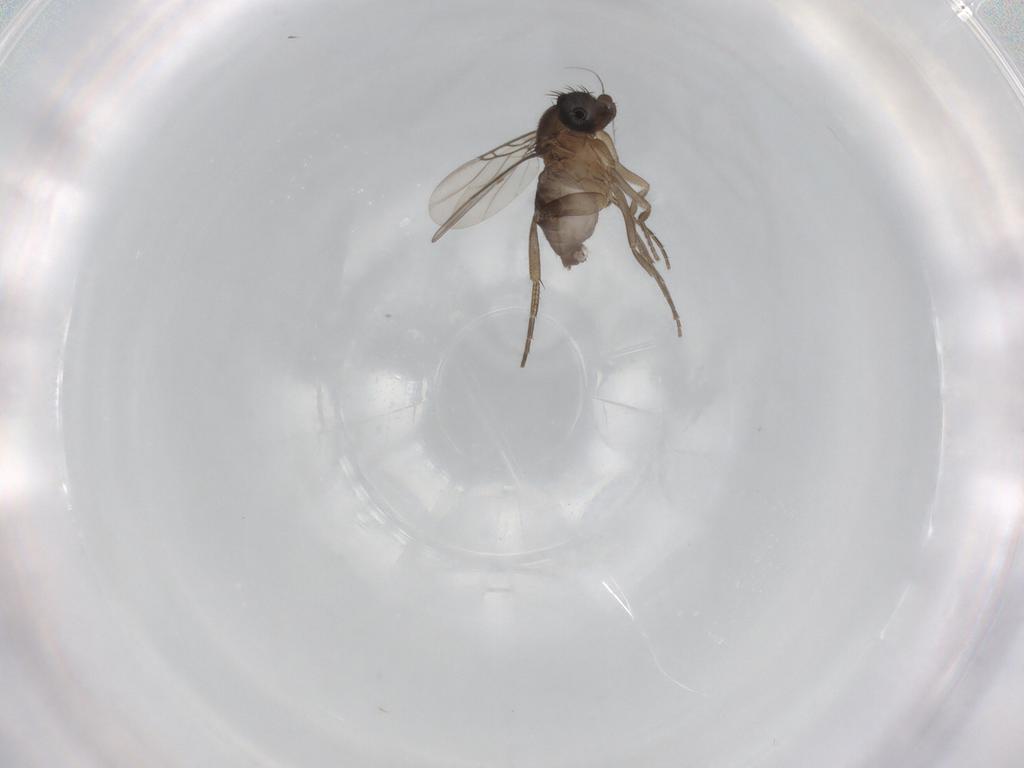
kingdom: Animalia
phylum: Arthropoda
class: Insecta
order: Diptera
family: Phoridae
